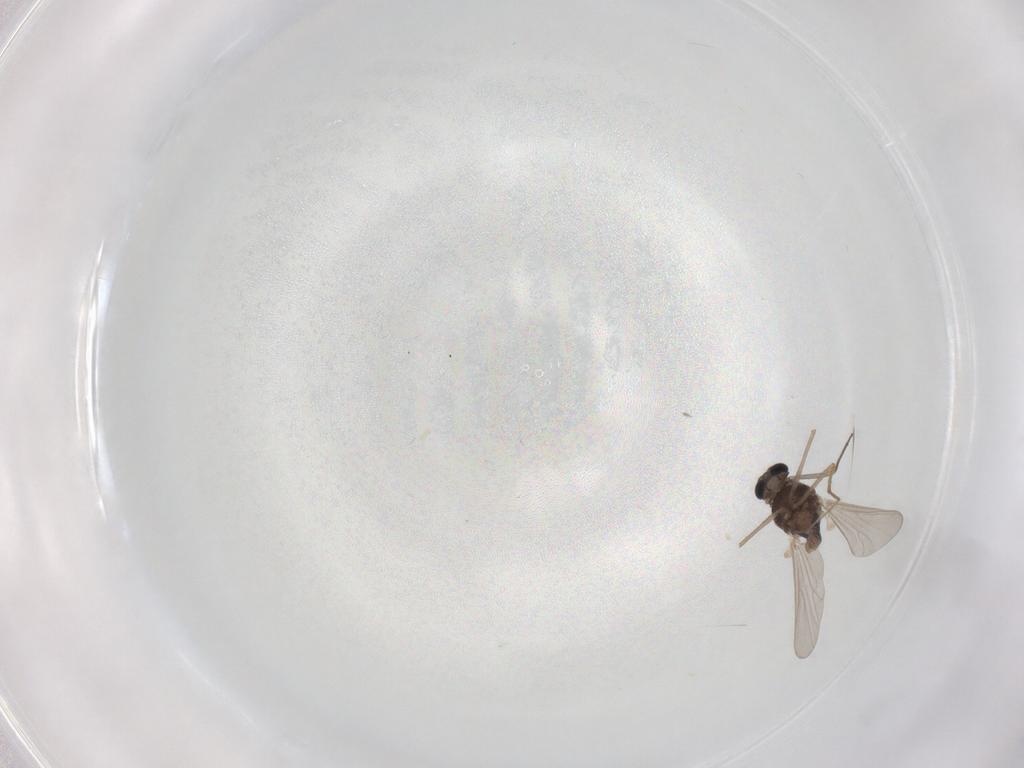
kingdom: Animalia
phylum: Arthropoda
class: Insecta
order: Diptera
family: Chironomidae
